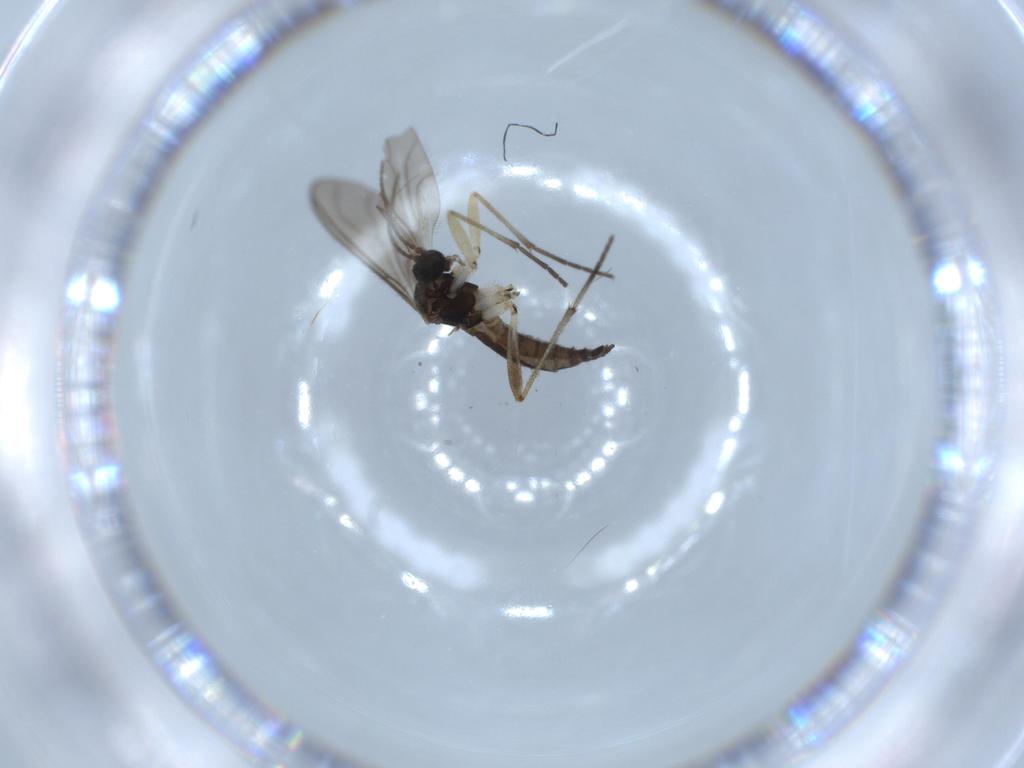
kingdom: Animalia
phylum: Arthropoda
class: Insecta
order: Diptera
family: Sciaridae
